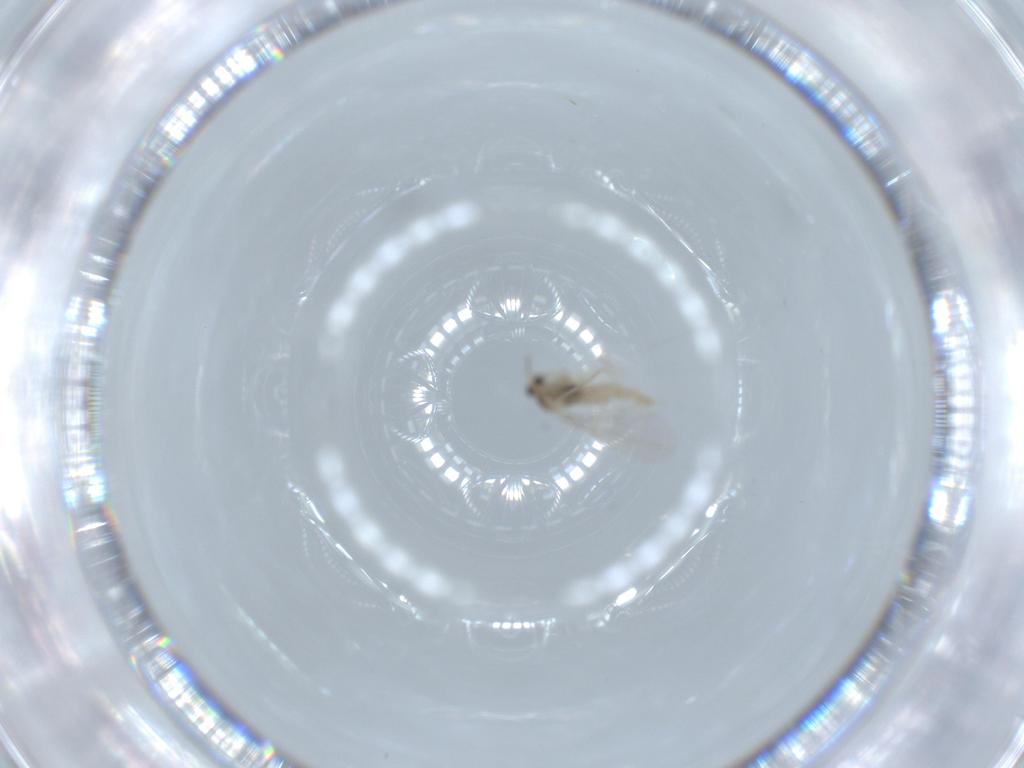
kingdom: Animalia
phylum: Arthropoda
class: Insecta
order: Diptera
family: Cecidomyiidae
